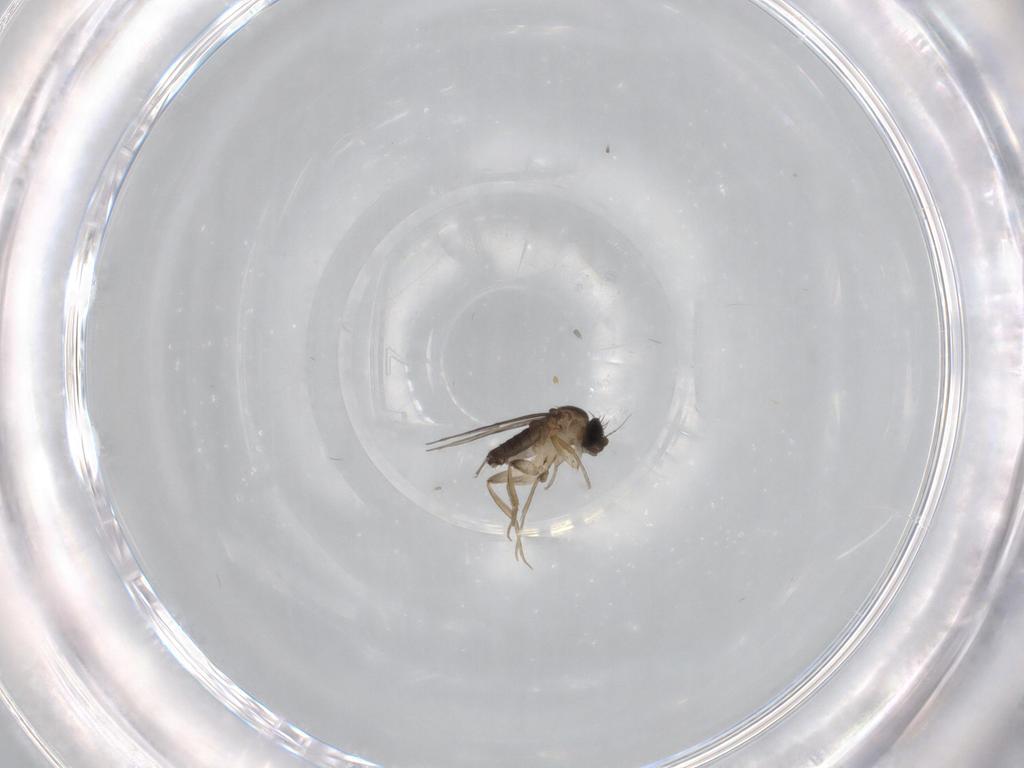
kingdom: Animalia
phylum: Arthropoda
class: Insecta
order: Diptera
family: Phoridae
